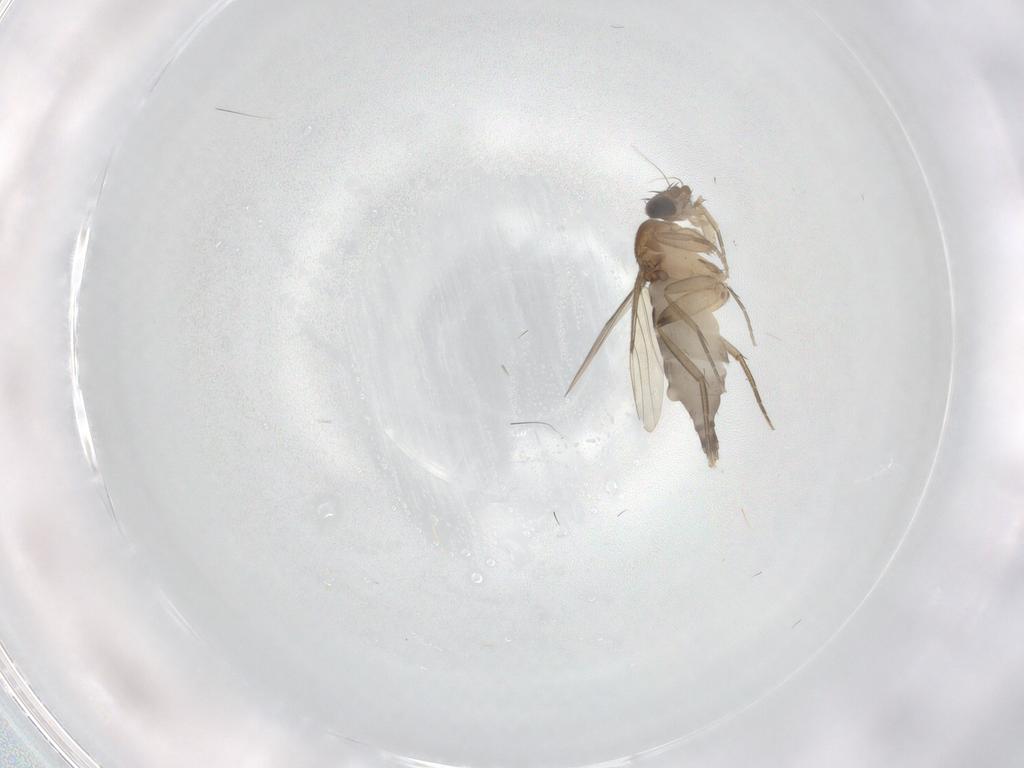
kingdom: Animalia
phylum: Arthropoda
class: Insecta
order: Diptera
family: Phoridae
